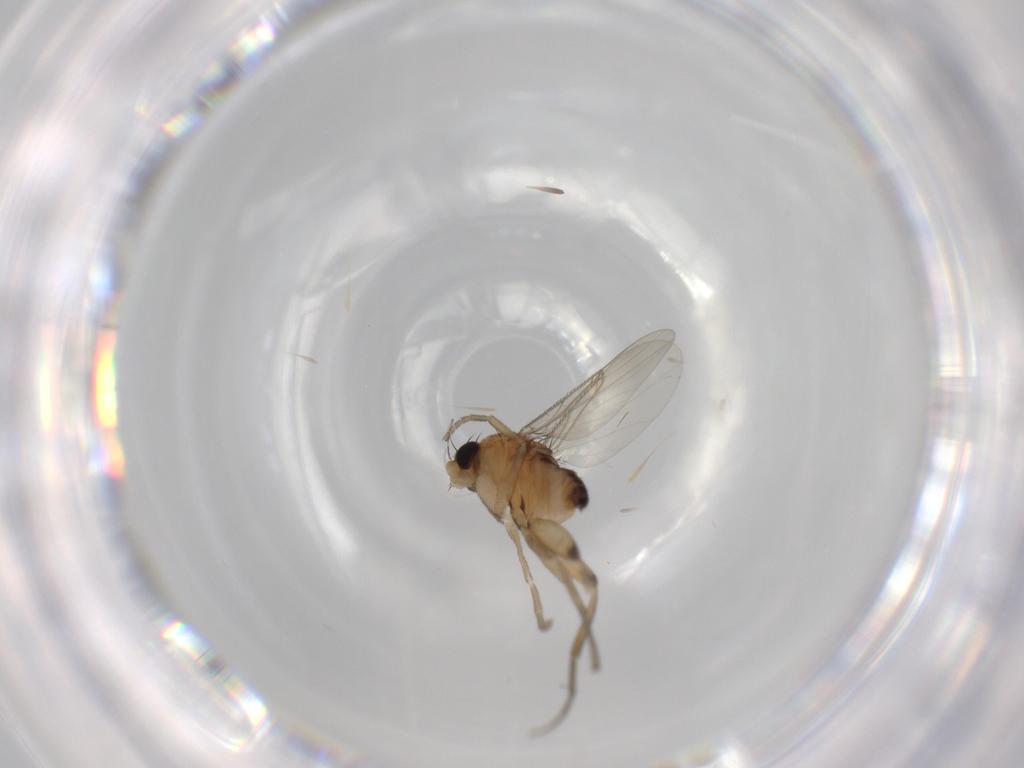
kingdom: Animalia
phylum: Arthropoda
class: Insecta
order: Diptera
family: Phoridae
